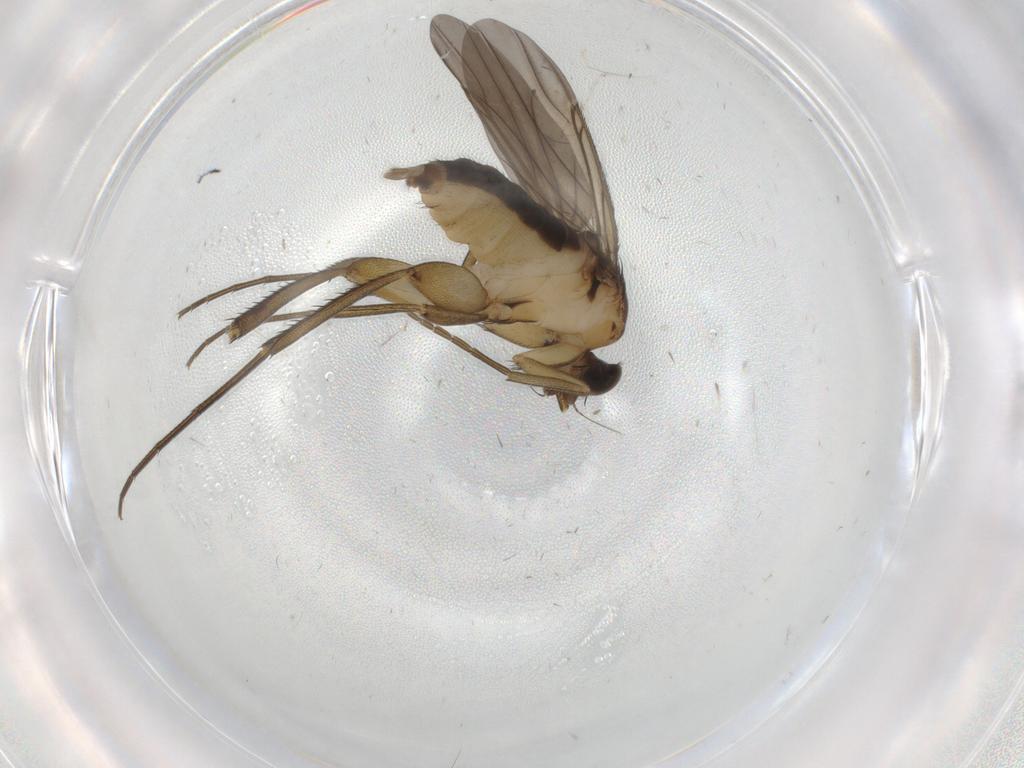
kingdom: Animalia
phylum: Arthropoda
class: Insecta
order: Diptera
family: Phoridae
